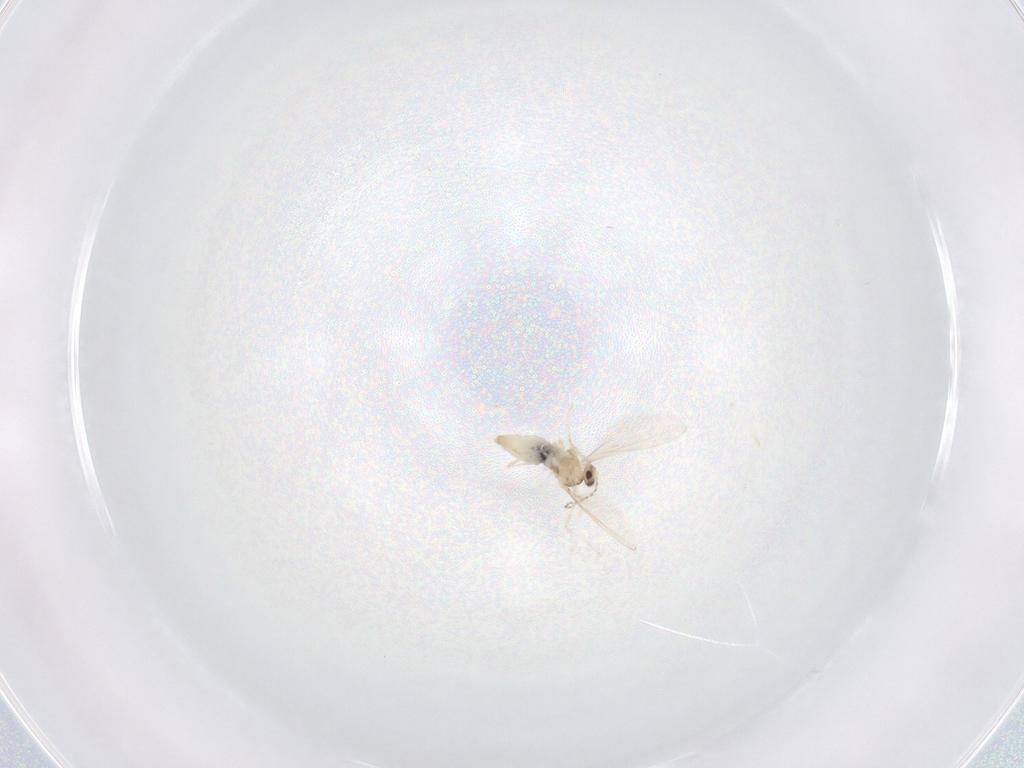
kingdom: Animalia
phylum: Arthropoda
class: Insecta
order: Diptera
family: Cecidomyiidae
